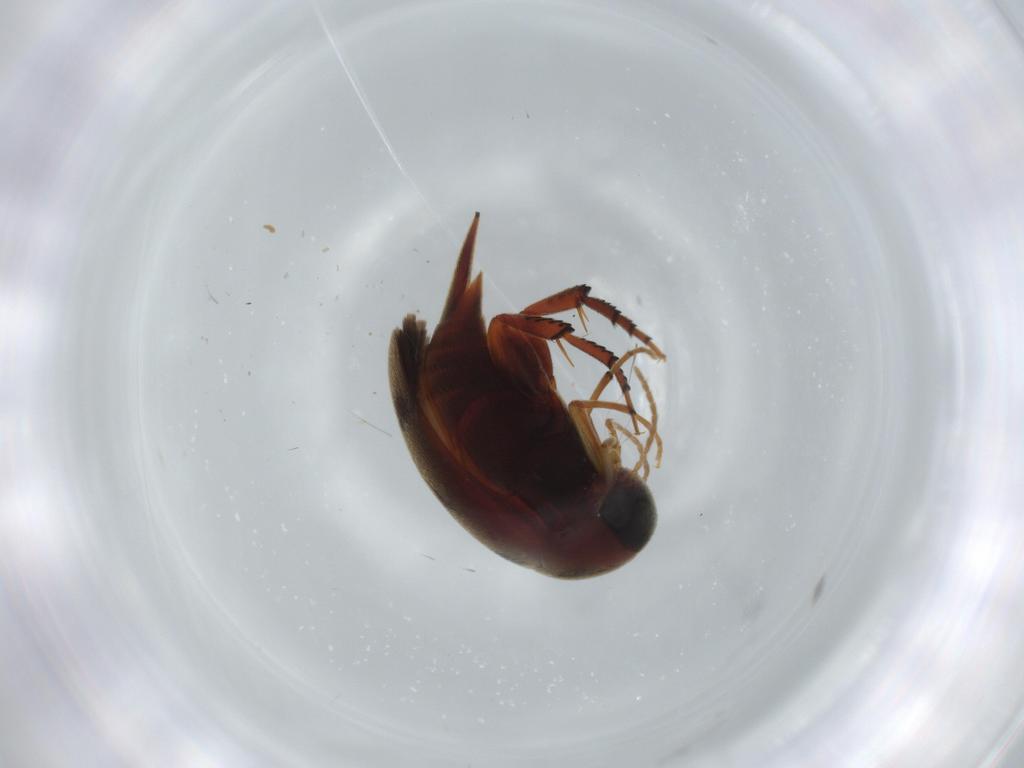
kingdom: Animalia
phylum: Arthropoda
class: Insecta
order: Coleoptera
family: Mordellidae
